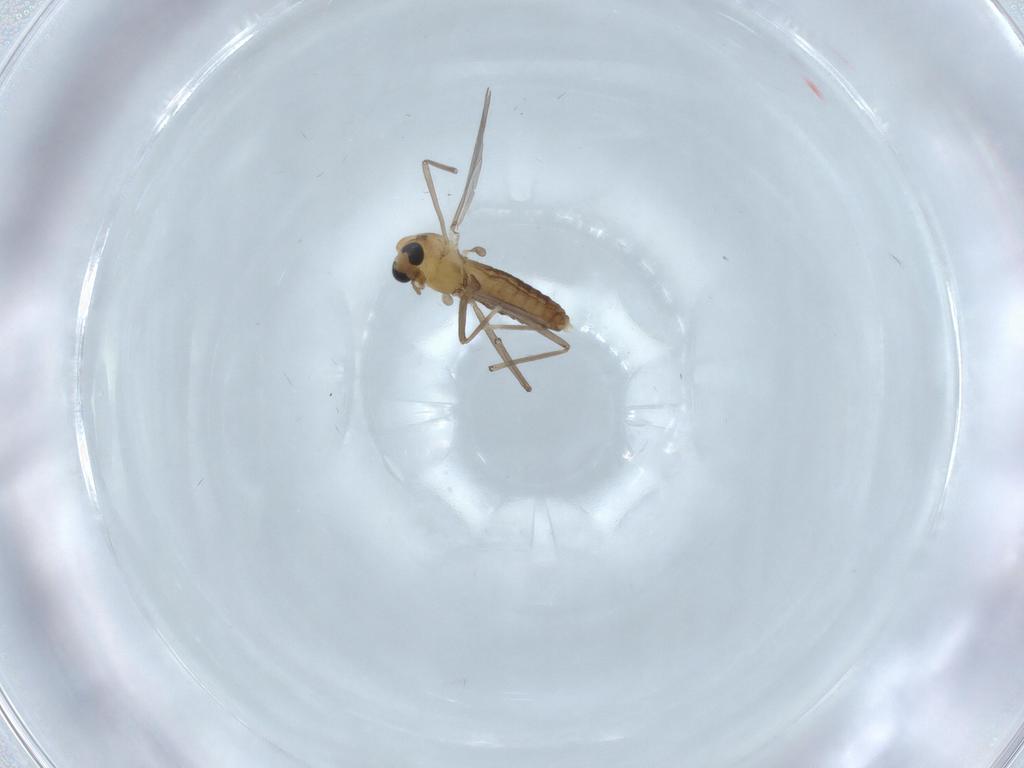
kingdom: Animalia
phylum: Arthropoda
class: Insecta
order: Diptera
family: Chironomidae
